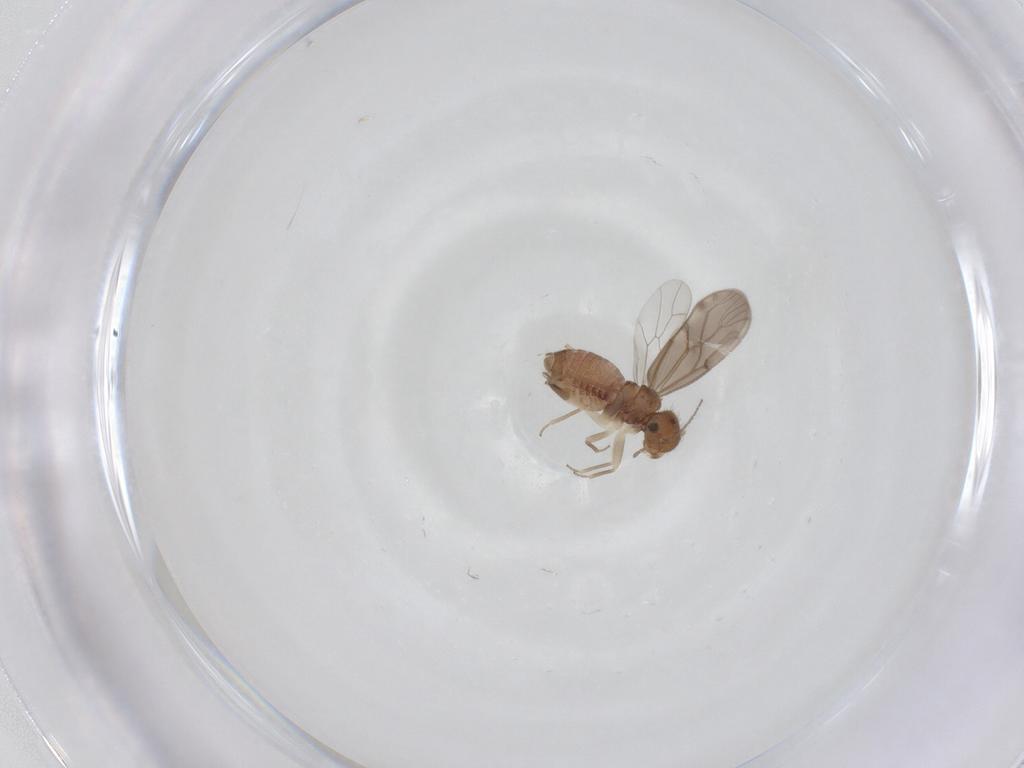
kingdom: Animalia
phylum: Arthropoda
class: Insecta
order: Psocodea
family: Ectopsocidae
